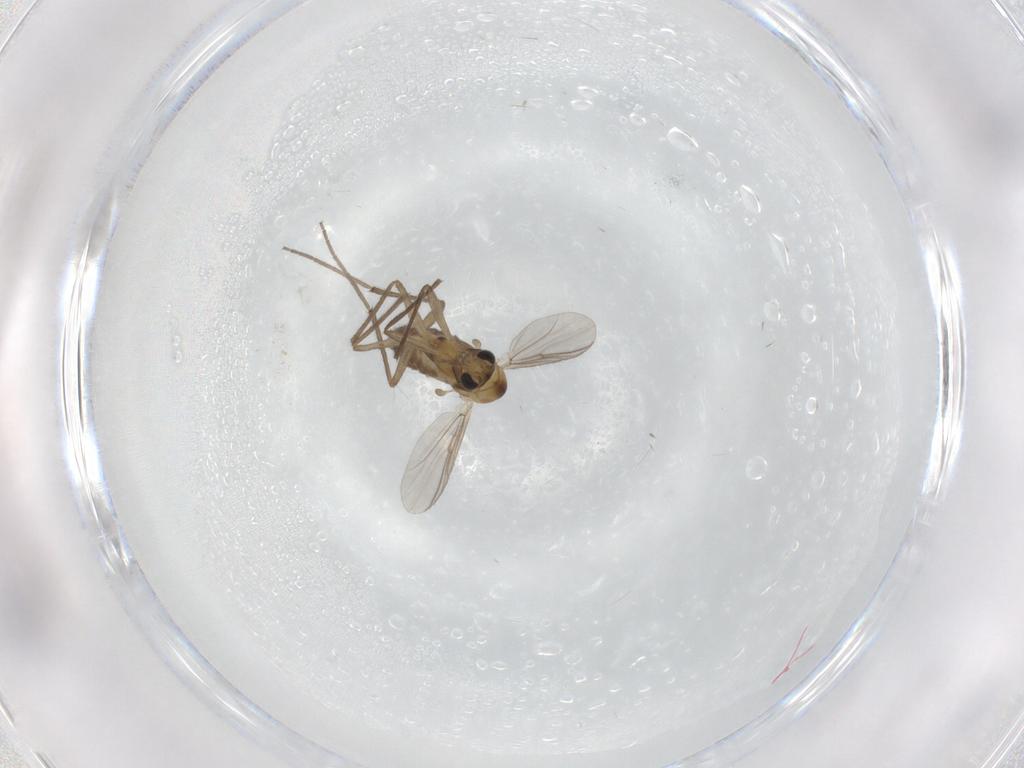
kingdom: Animalia
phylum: Arthropoda
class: Insecta
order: Diptera
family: Chironomidae
